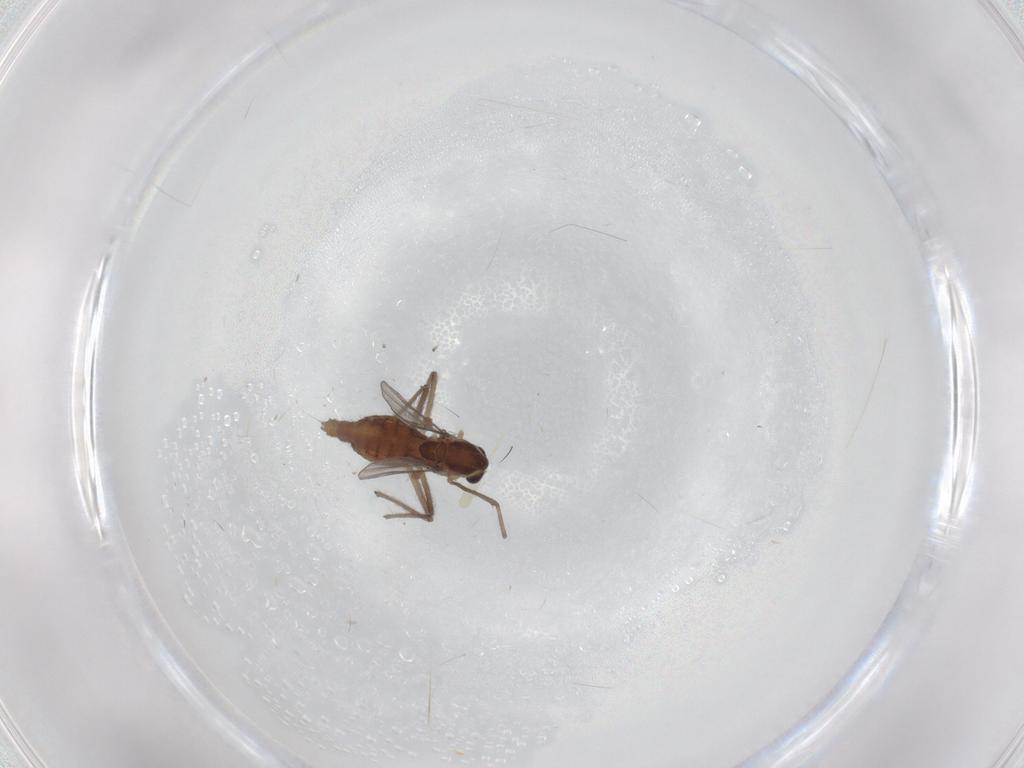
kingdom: Animalia
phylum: Arthropoda
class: Insecta
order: Diptera
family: Chironomidae
